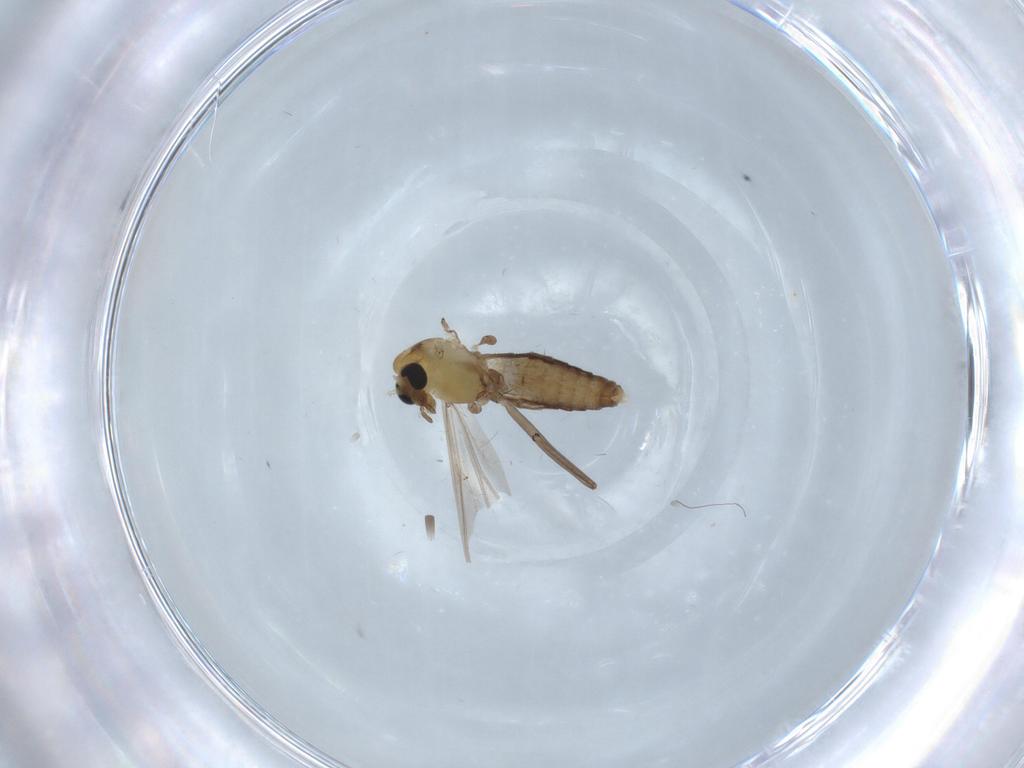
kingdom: Animalia
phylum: Arthropoda
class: Insecta
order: Diptera
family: Chironomidae
